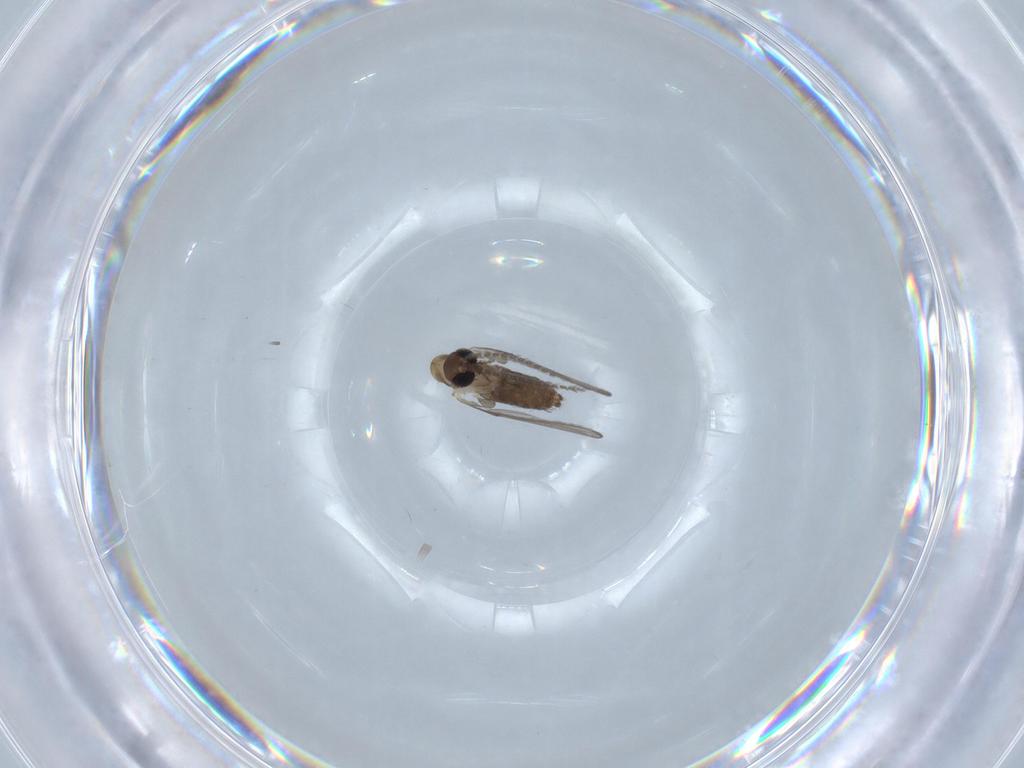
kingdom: Animalia
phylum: Arthropoda
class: Insecta
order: Diptera
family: Cecidomyiidae
